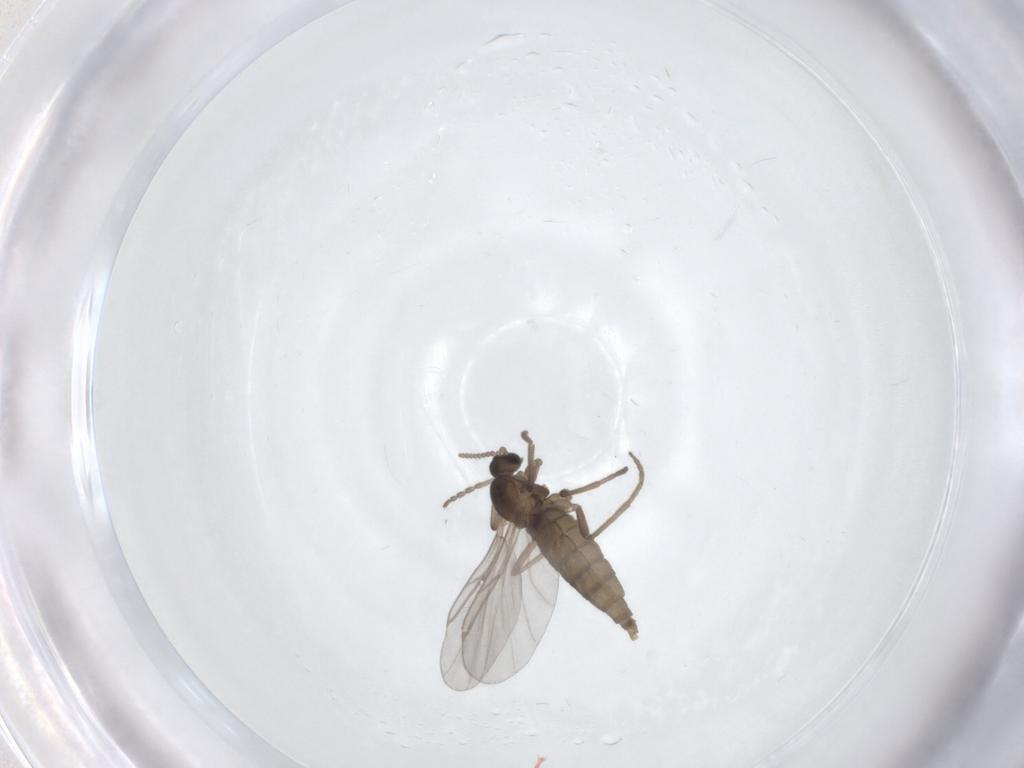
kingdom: Animalia
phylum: Arthropoda
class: Insecta
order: Diptera
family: Cecidomyiidae
